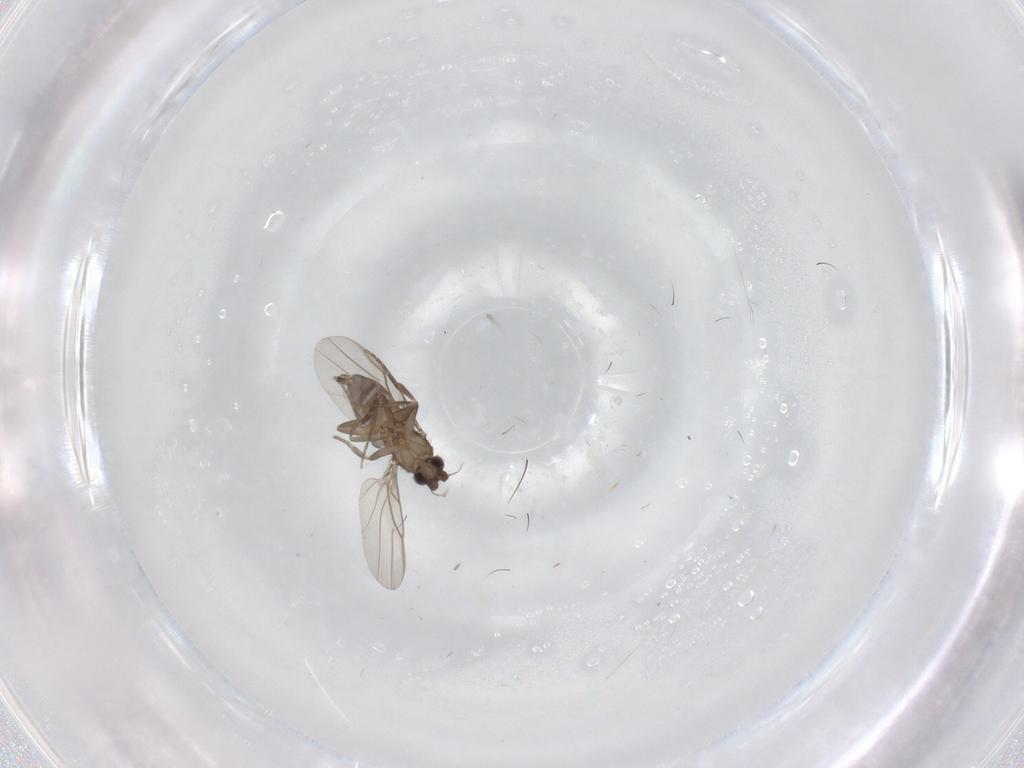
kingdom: Animalia
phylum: Arthropoda
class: Insecta
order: Diptera
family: Phoridae
